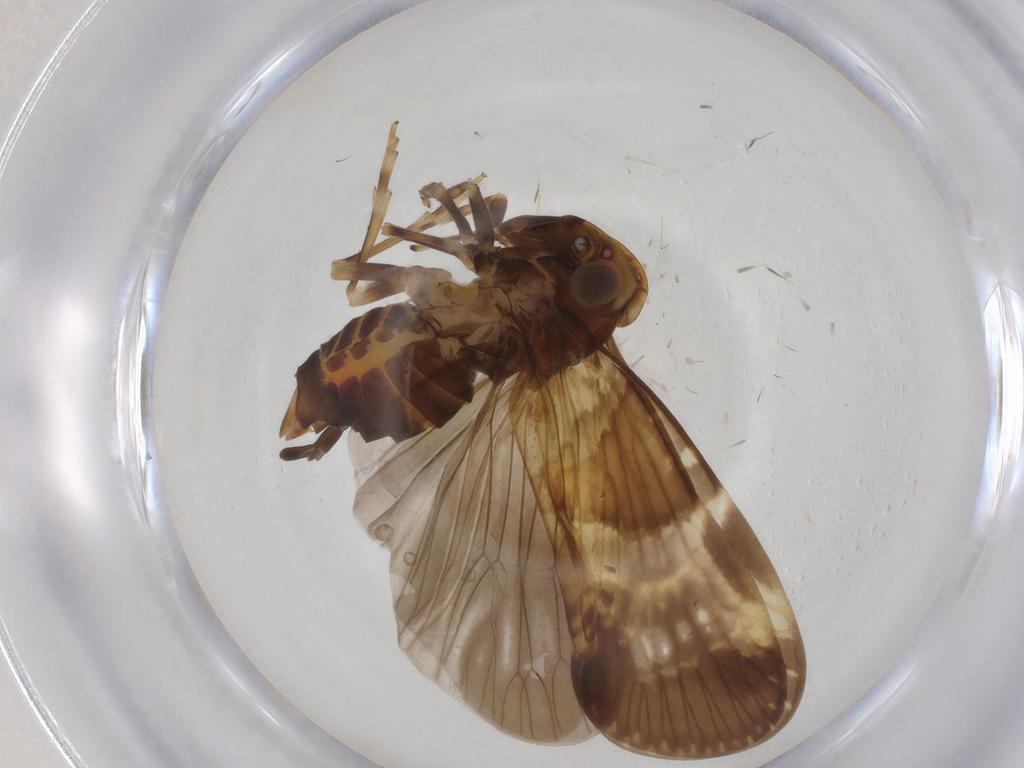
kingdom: Animalia
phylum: Arthropoda
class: Insecta
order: Hemiptera
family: Cixiidae
